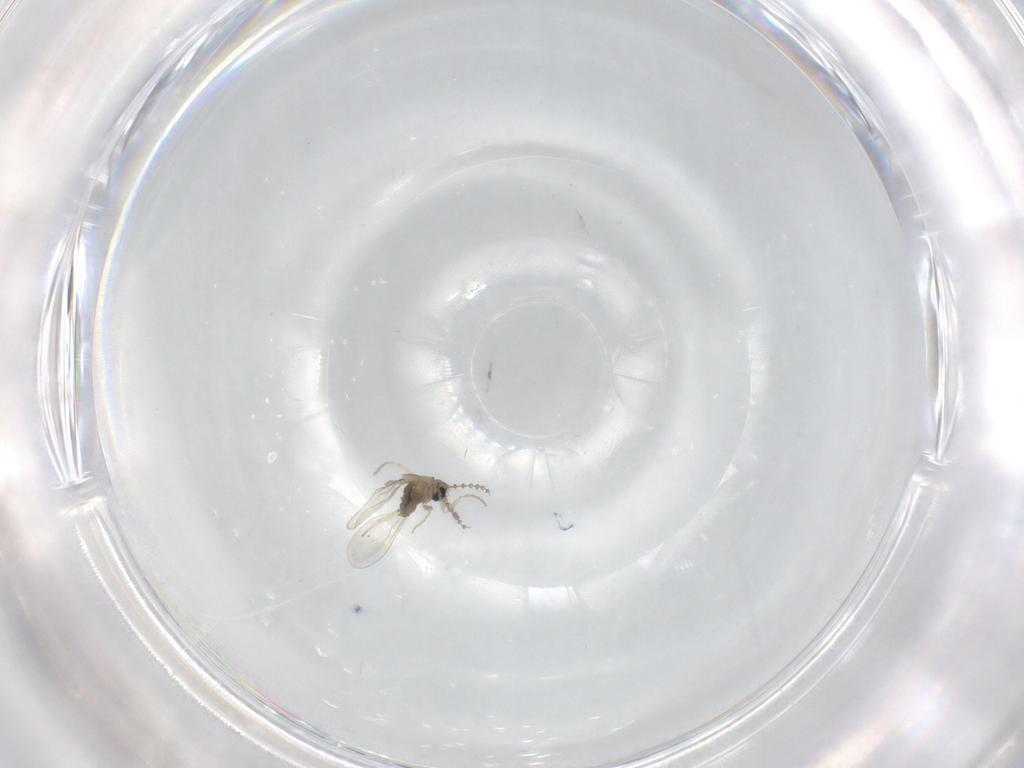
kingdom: Animalia
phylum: Arthropoda
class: Insecta
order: Diptera
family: Cecidomyiidae
